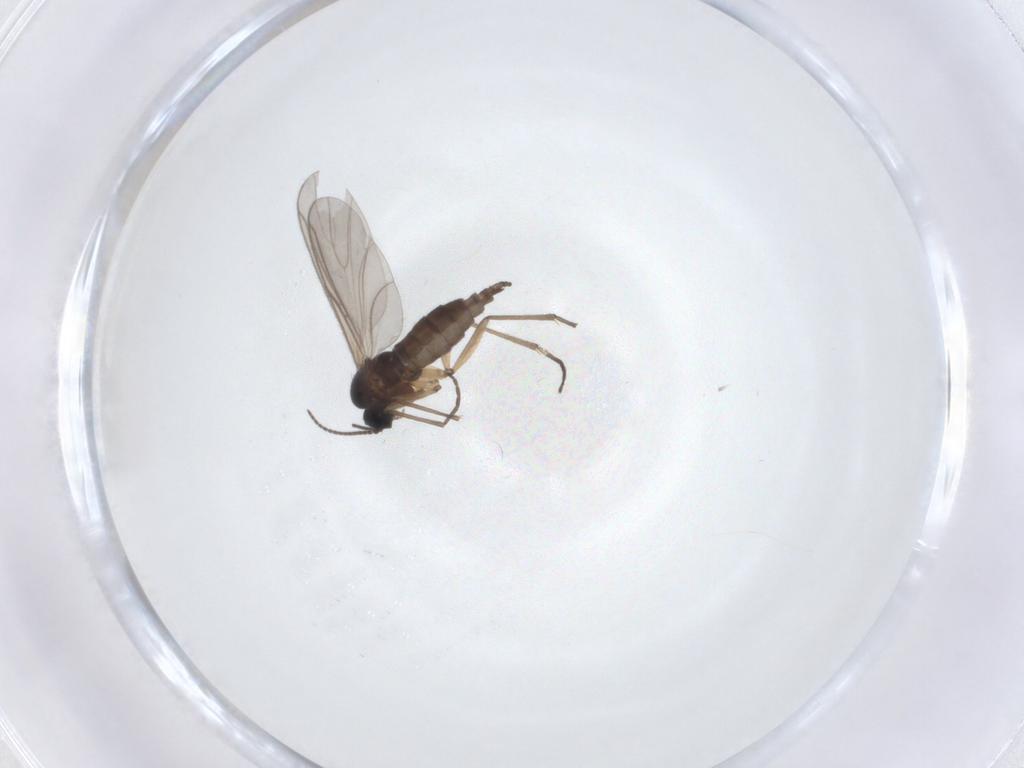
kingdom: Animalia
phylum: Arthropoda
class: Insecta
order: Diptera
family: Sciaridae
